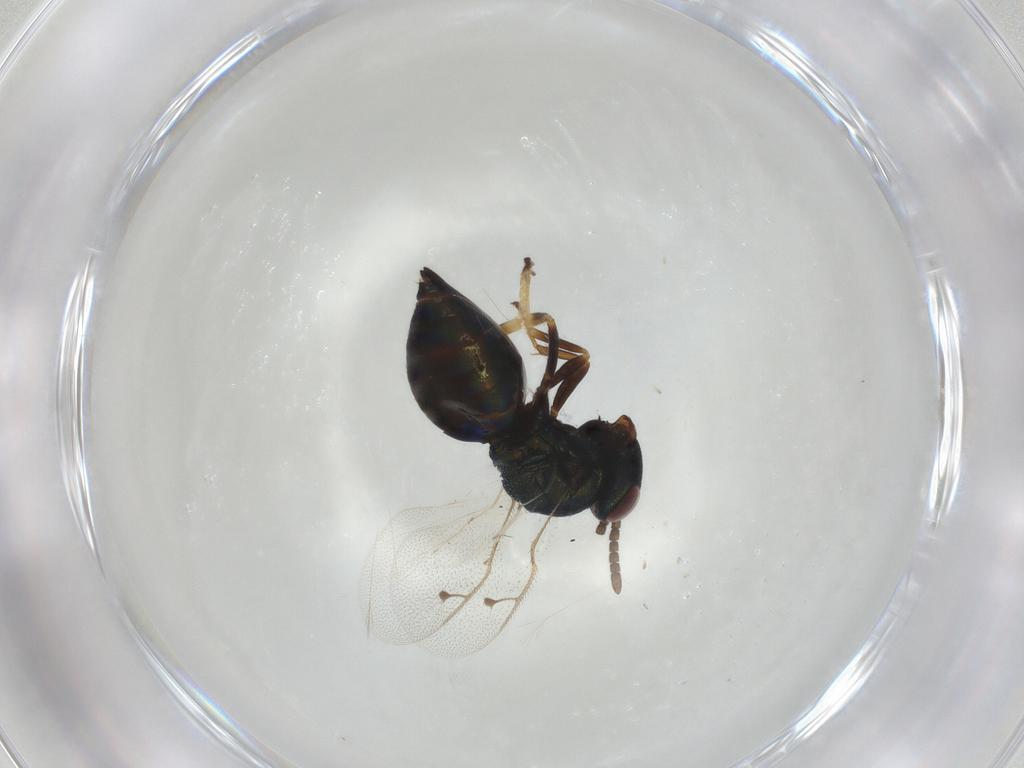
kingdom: Animalia
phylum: Arthropoda
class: Insecta
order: Hymenoptera
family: Pteromalidae
